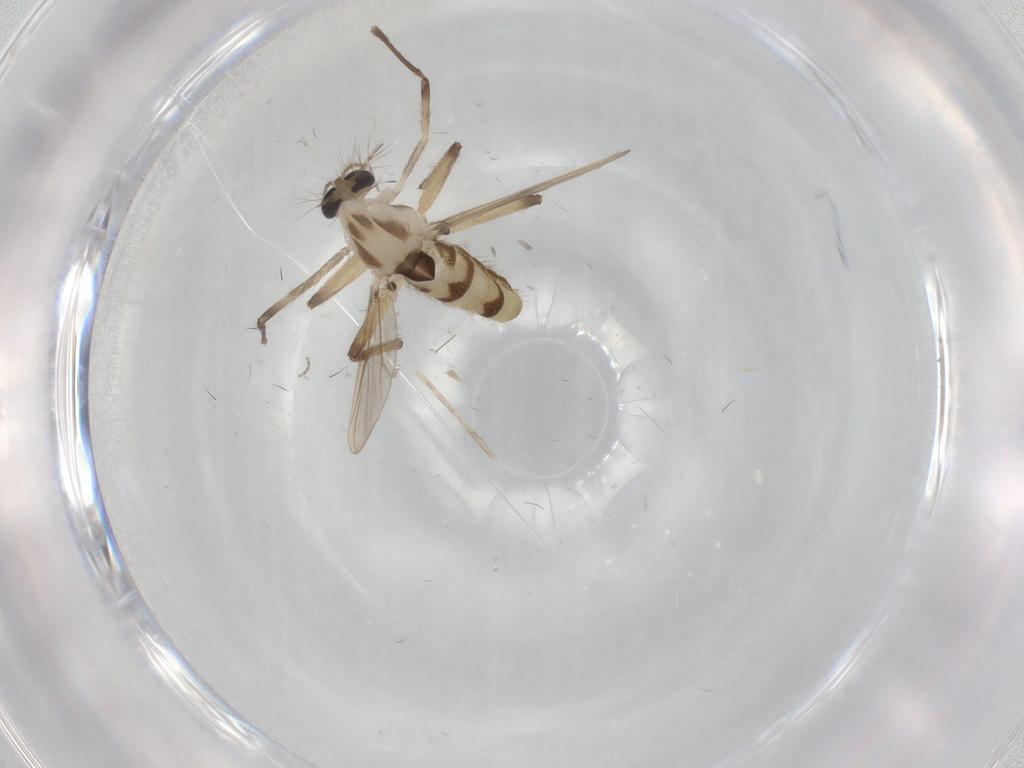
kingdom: Animalia
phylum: Arthropoda
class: Insecta
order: Diptera
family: Chironomidae
